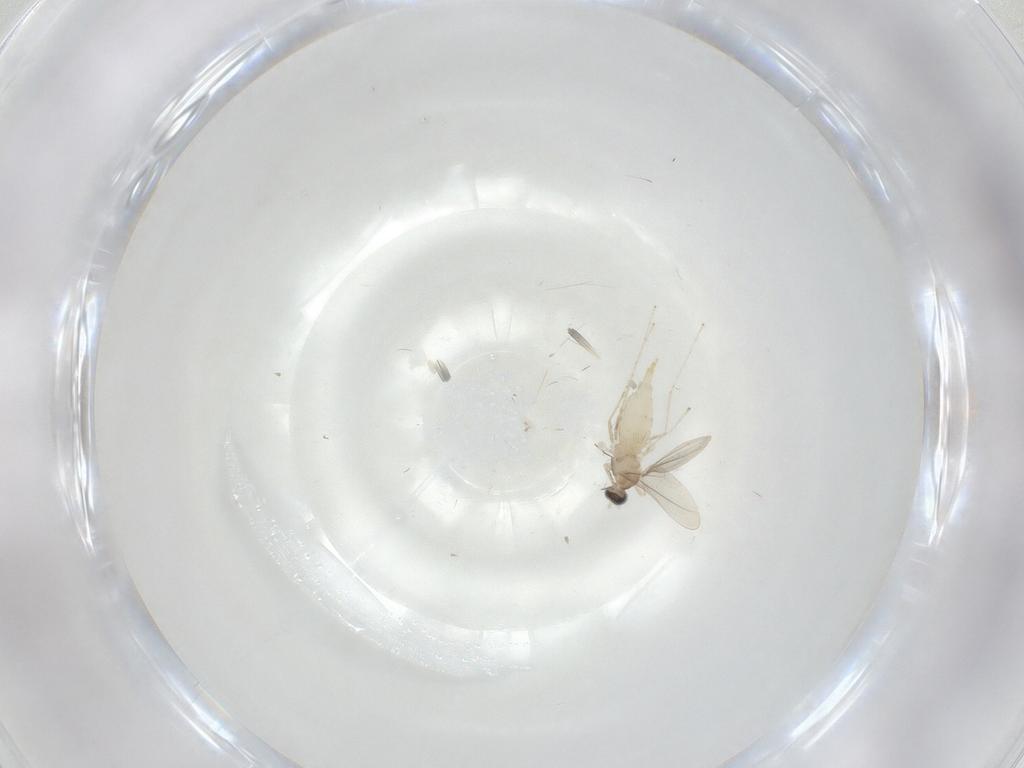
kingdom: Animalia
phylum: Arthropoda
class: Insecta
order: Diptera
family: Cecidomyiidae
